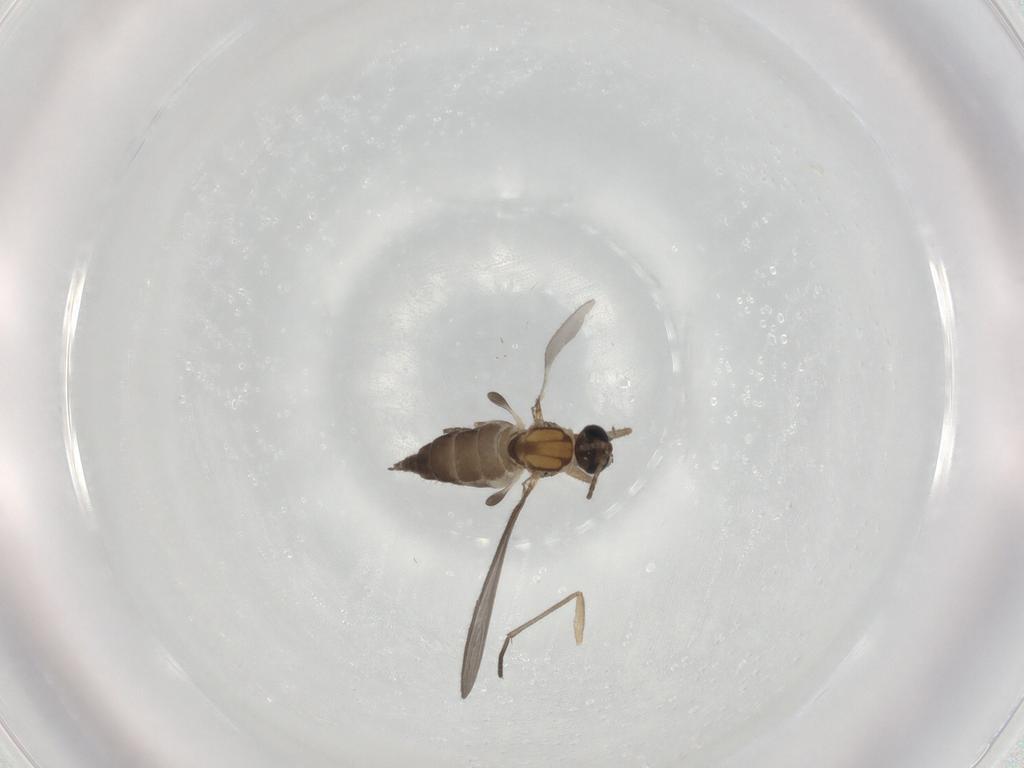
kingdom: Animalia
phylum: Arthropoda
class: Insecta
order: Diptera
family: Sciaridae
